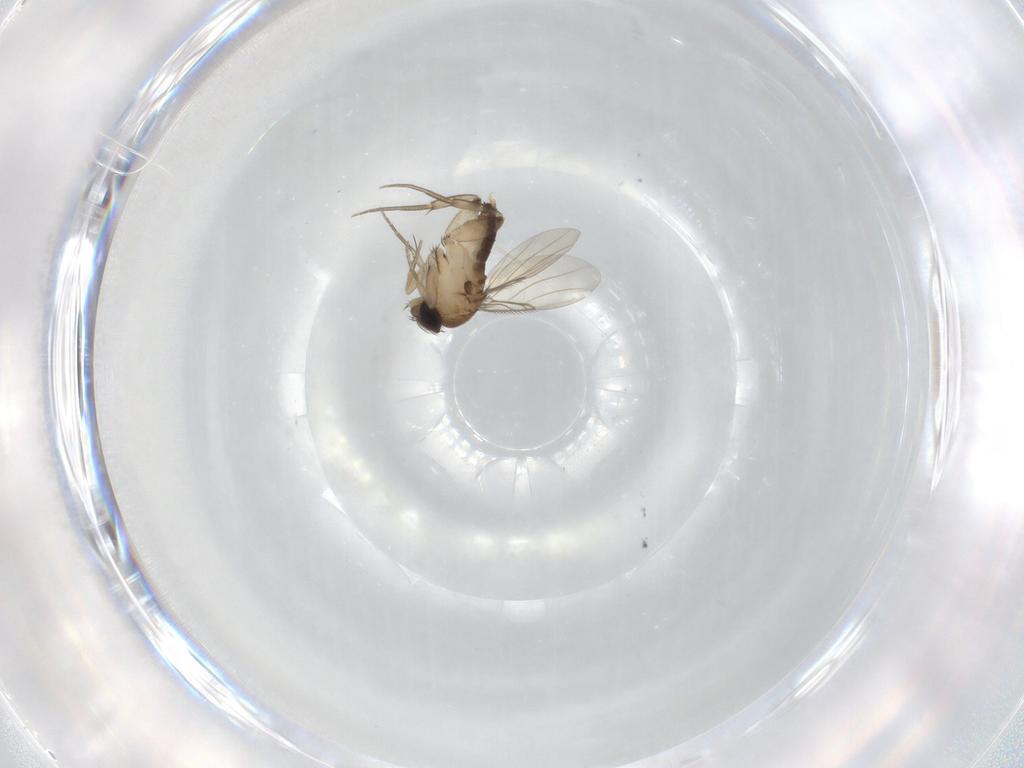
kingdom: Animalia
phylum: Arthropoda
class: Insecta
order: Diptera
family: Phoridae
